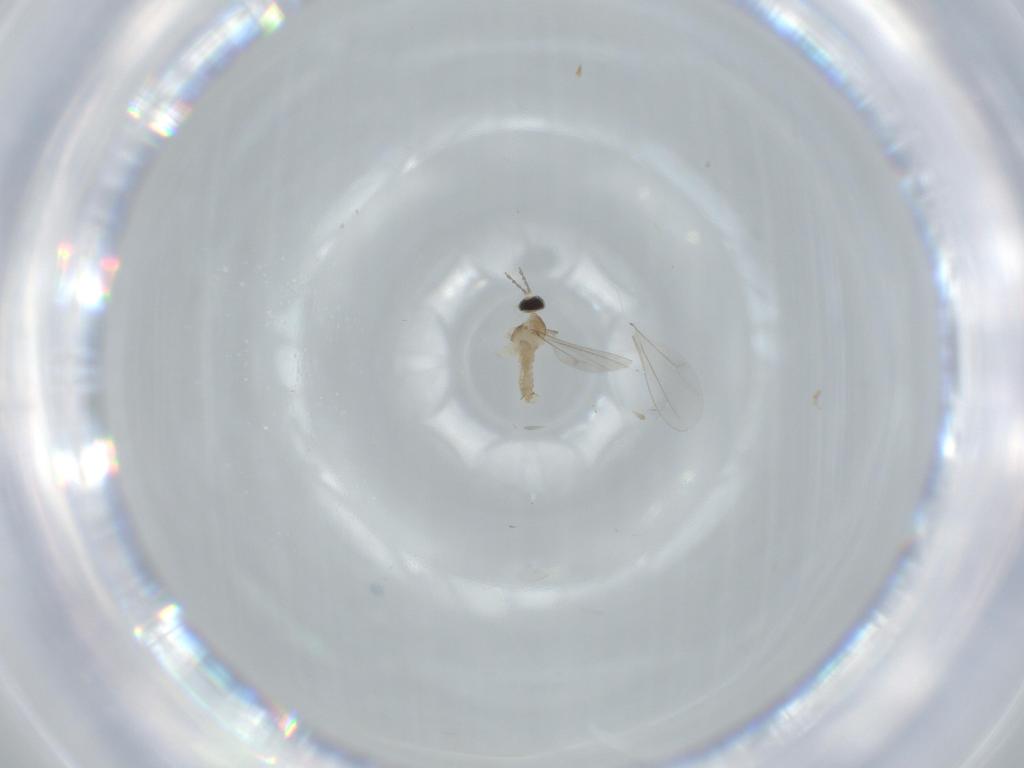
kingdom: Animalia
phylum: Arthropoda
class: Insecta
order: Diptera
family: Cecidomyiidae
